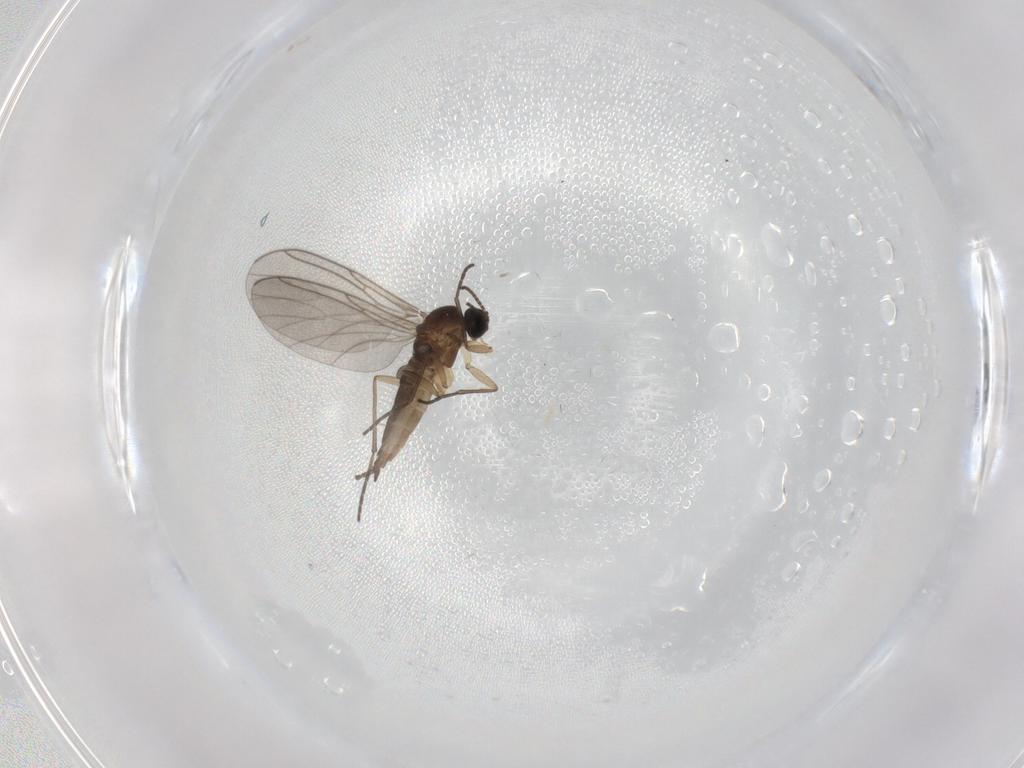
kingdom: Animalia
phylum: Arthropoda
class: Insecta
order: Diptera
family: Sciaridae
